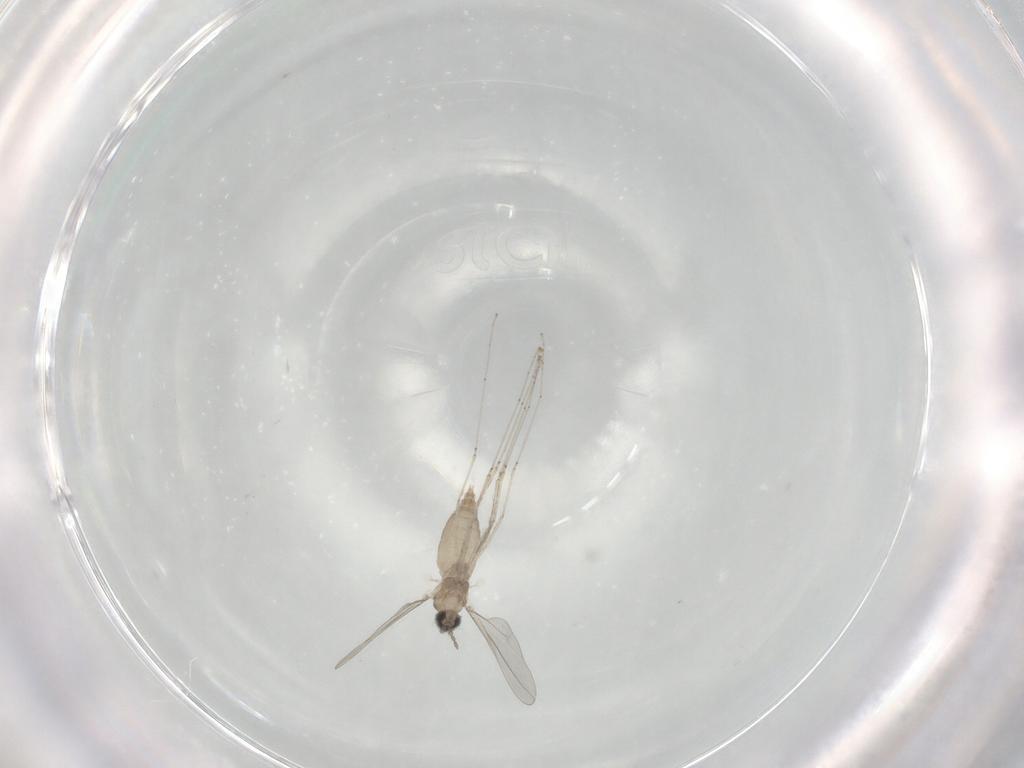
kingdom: Animalia
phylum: Arthropoda
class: Insecta
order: Diptera
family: Cecidomyiidae
